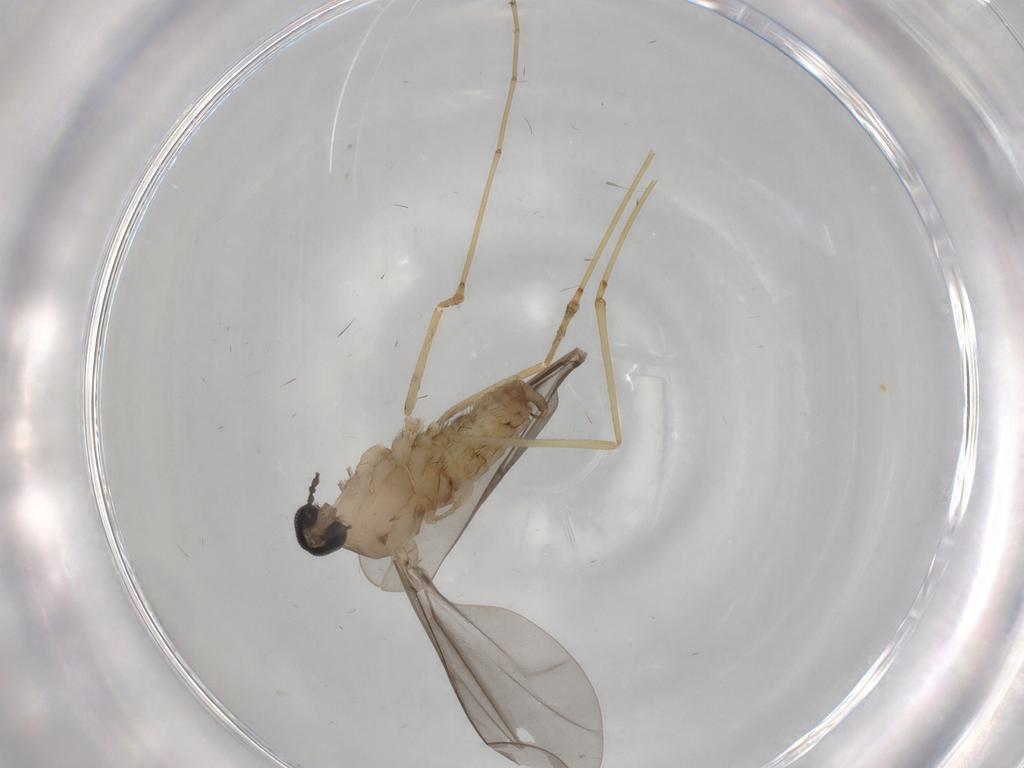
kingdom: Animalia
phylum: Arthropoda
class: Insecta
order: Diptera
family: Cecidomyiidae
